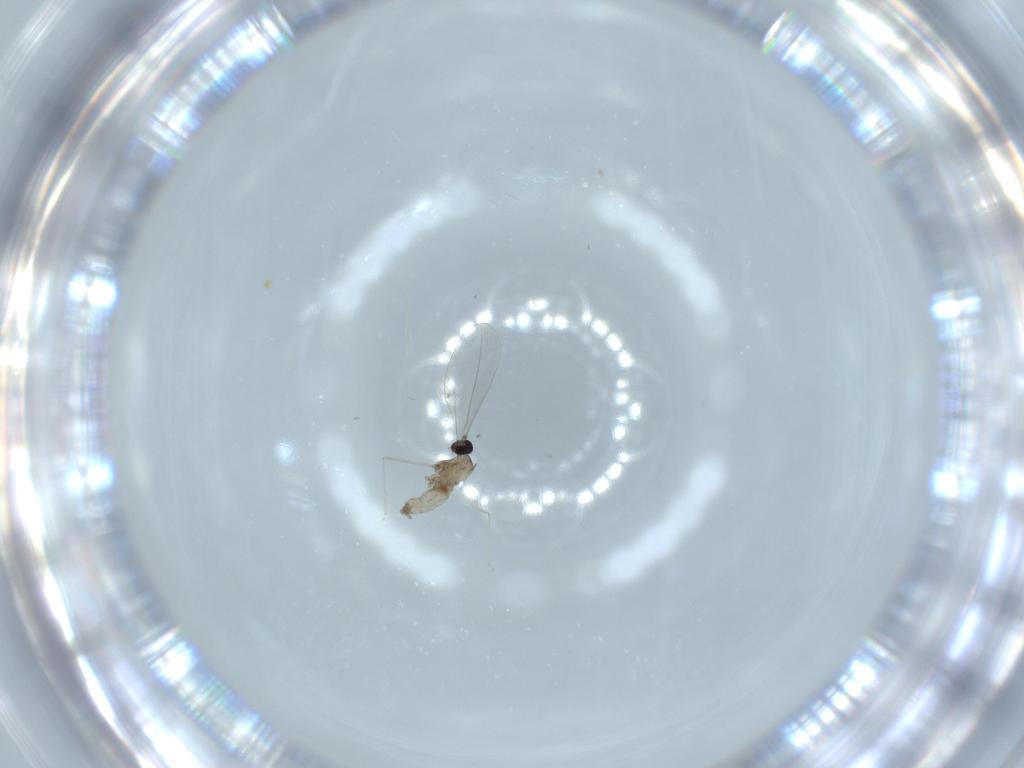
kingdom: Animalia
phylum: Arthropoda
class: Insecta
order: Diptera
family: Cecidomyiidae
